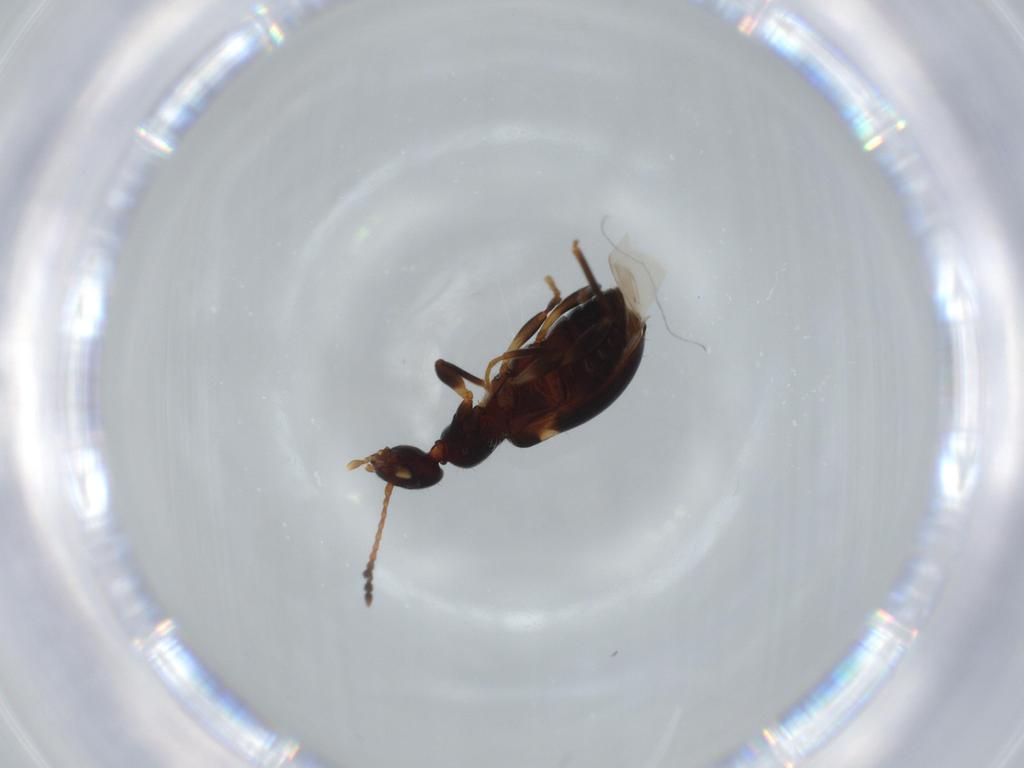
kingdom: Animalia
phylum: Arthropoda
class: Insecta
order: Coleoptera
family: Anthicidae
